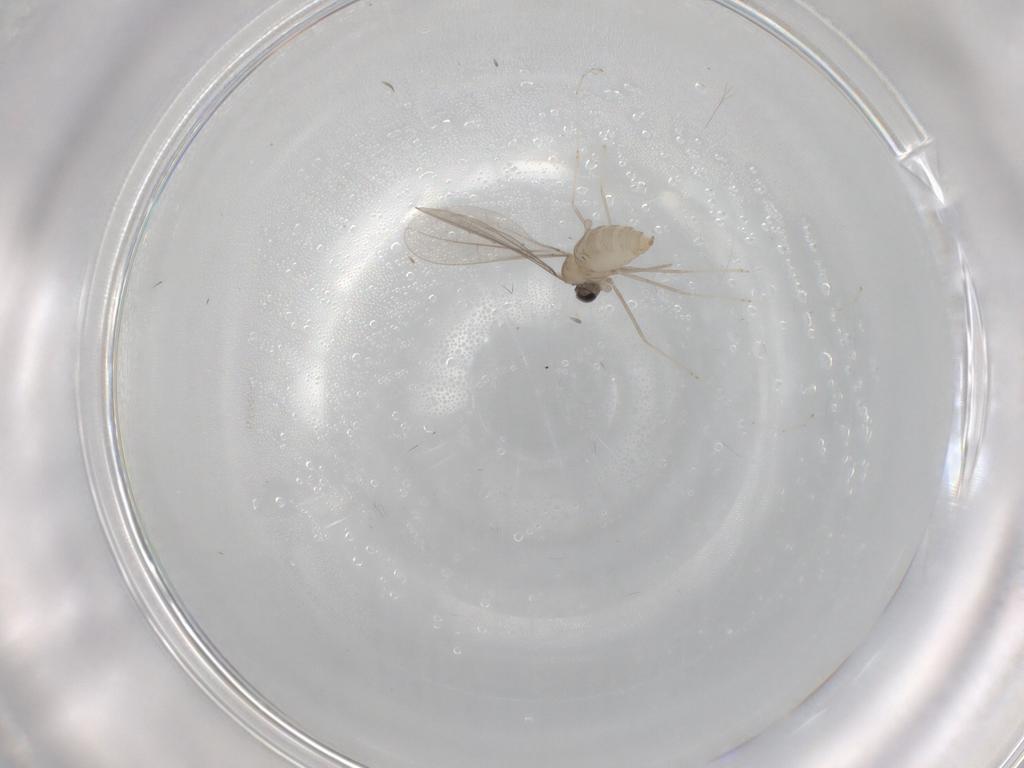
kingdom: Animalia
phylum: Arthropoda
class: Insecta
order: Diptera
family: Cecidomyiidae
